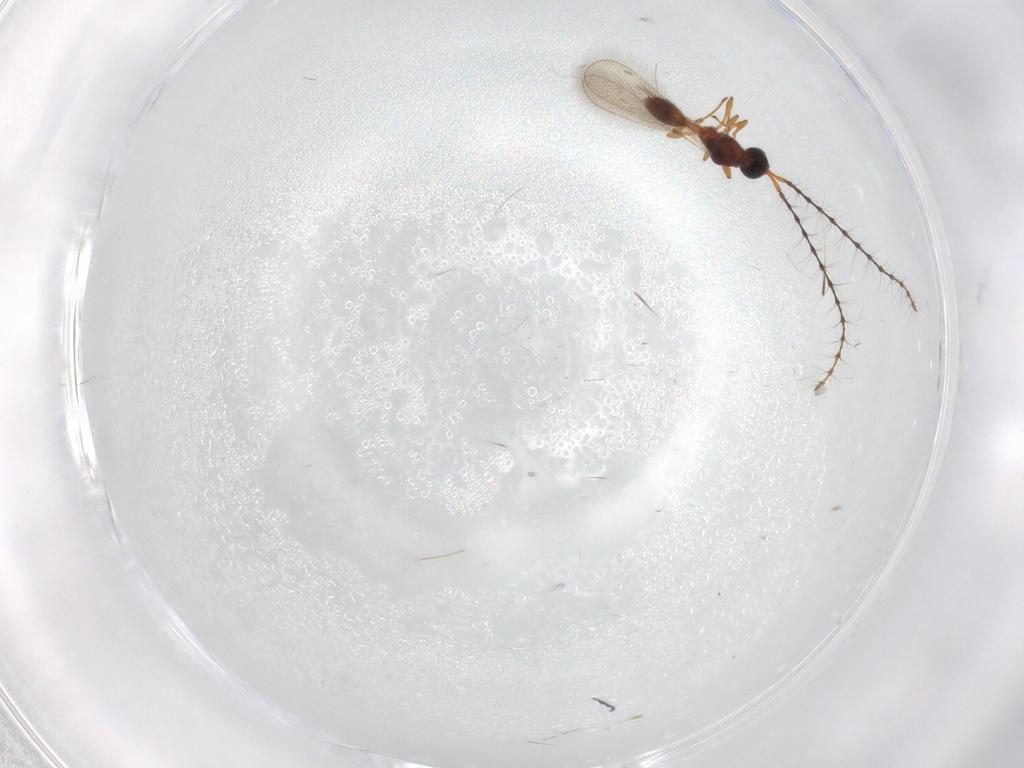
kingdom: Animalia
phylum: Arthropoda
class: Insecta
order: Hymenoptera
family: Diapriidae
